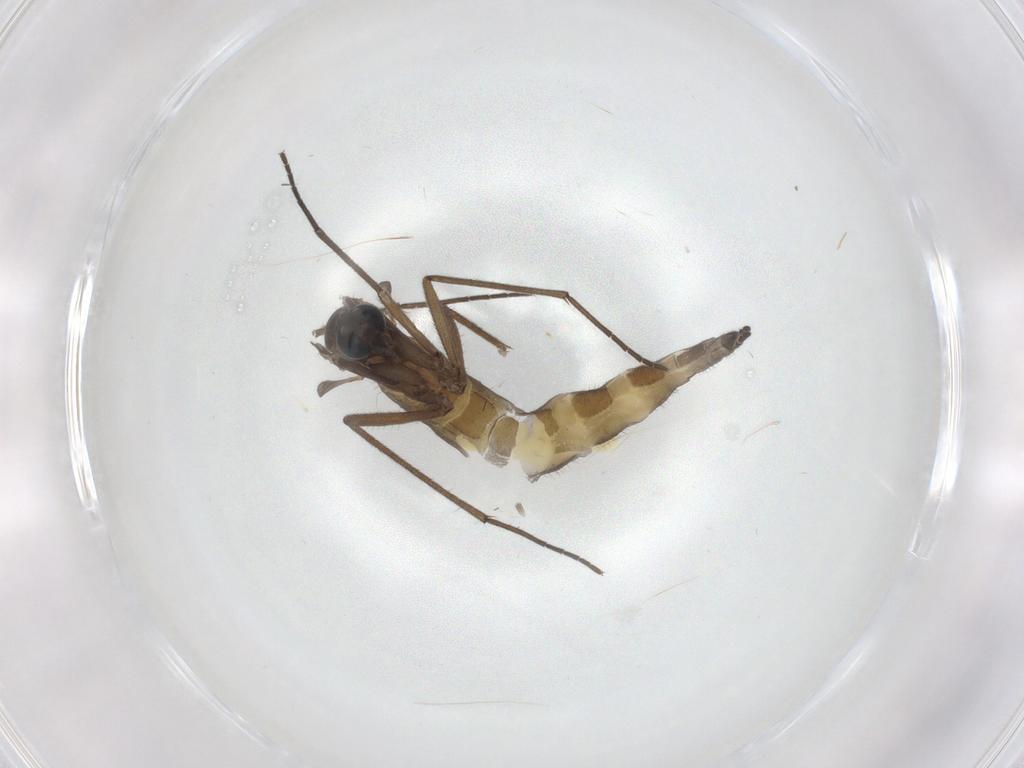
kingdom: Animalia
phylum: Arthropoda
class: Insecta
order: Diptera
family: Sciaridae
